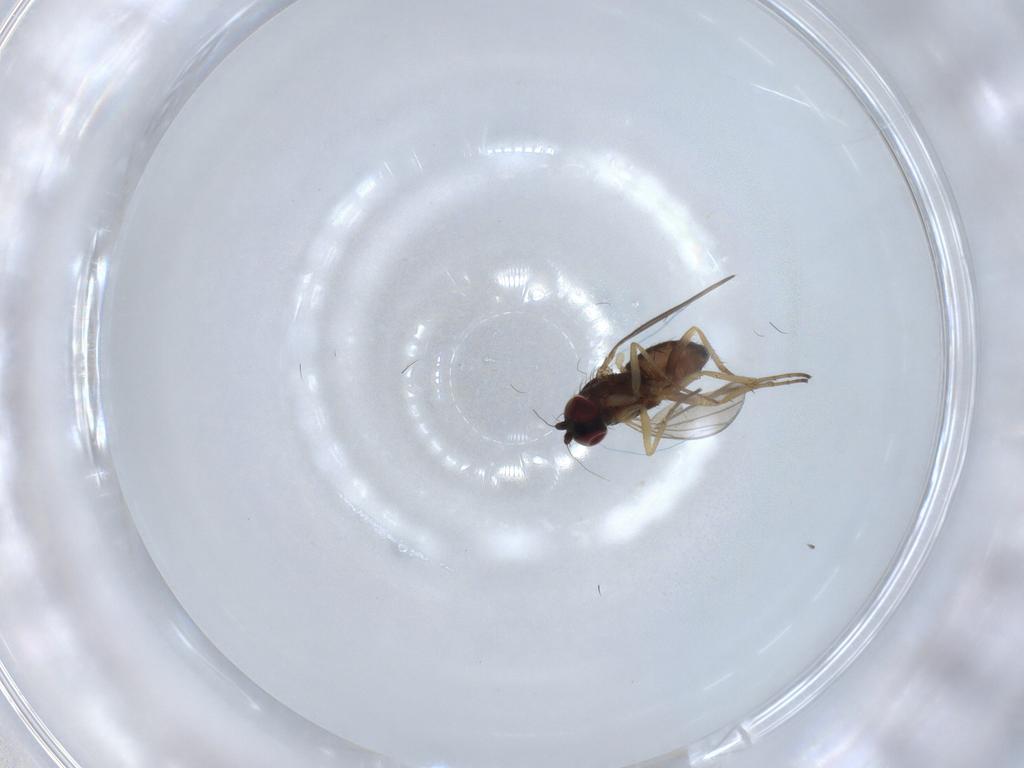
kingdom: Animalia
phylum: Arthropoda
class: Insecta
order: Diptera
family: Dolichopodidae
